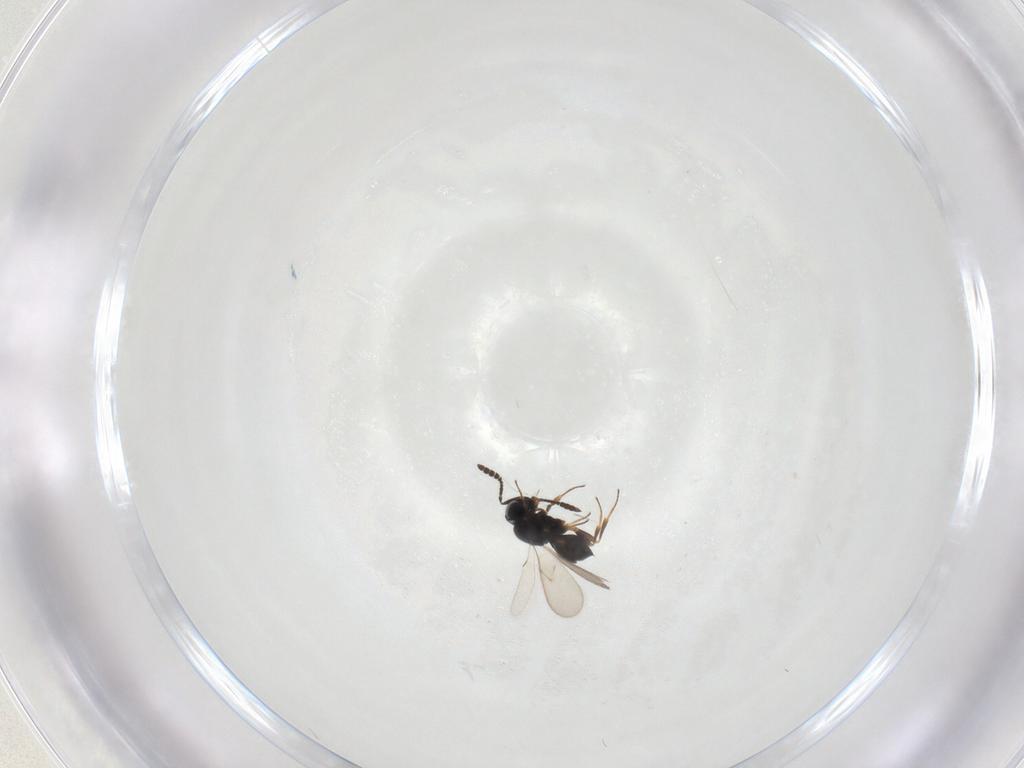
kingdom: Animalia
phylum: Arthropoda
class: Insecta
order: Hymenoptera
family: Scelionidae
